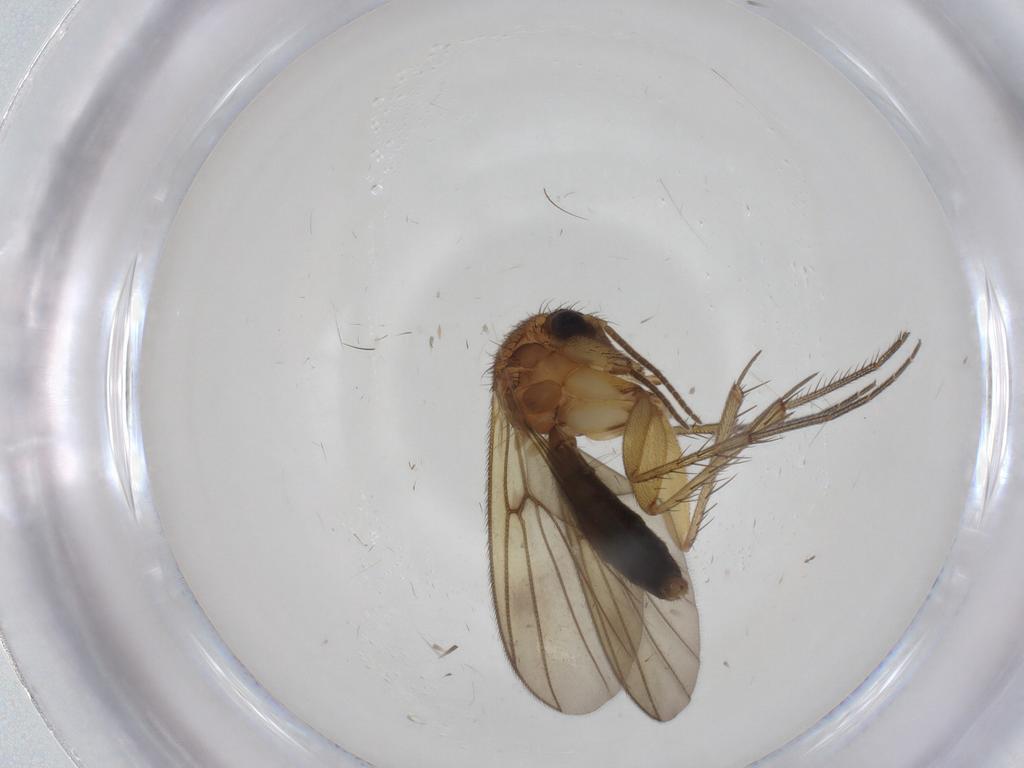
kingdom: Animalia
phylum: Arthropoda
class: Insecta
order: Diptera
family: Mycetophilidae
